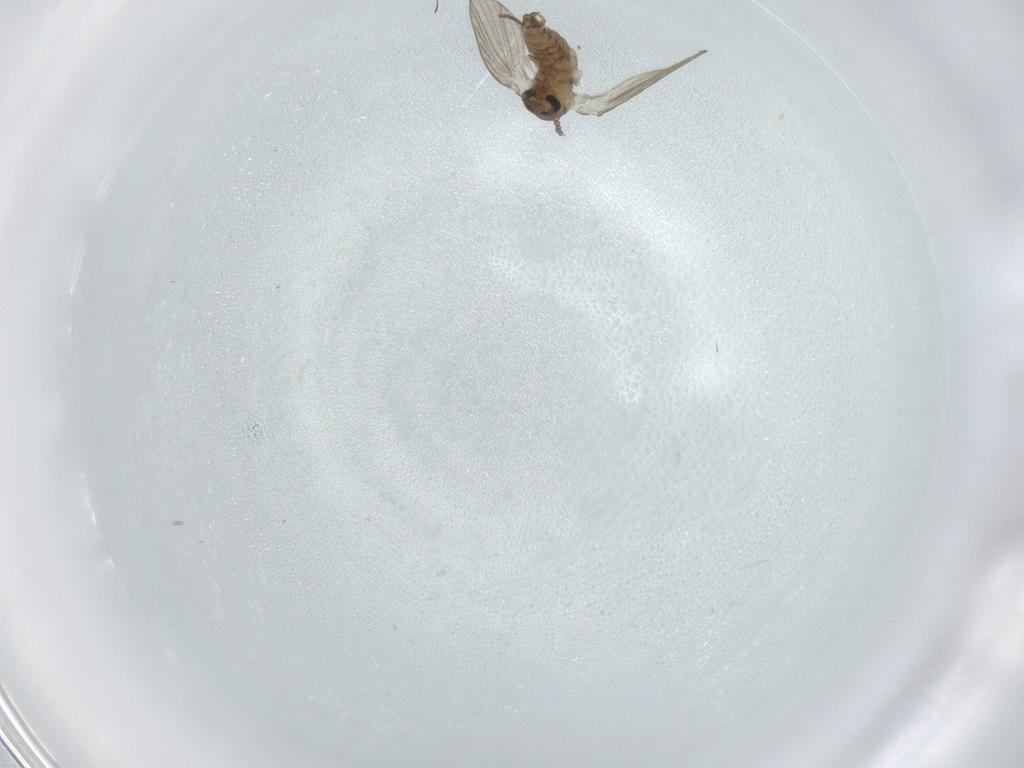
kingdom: Animalia
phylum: Arthropoda
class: Insecta
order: Diptera
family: Psychodidae
